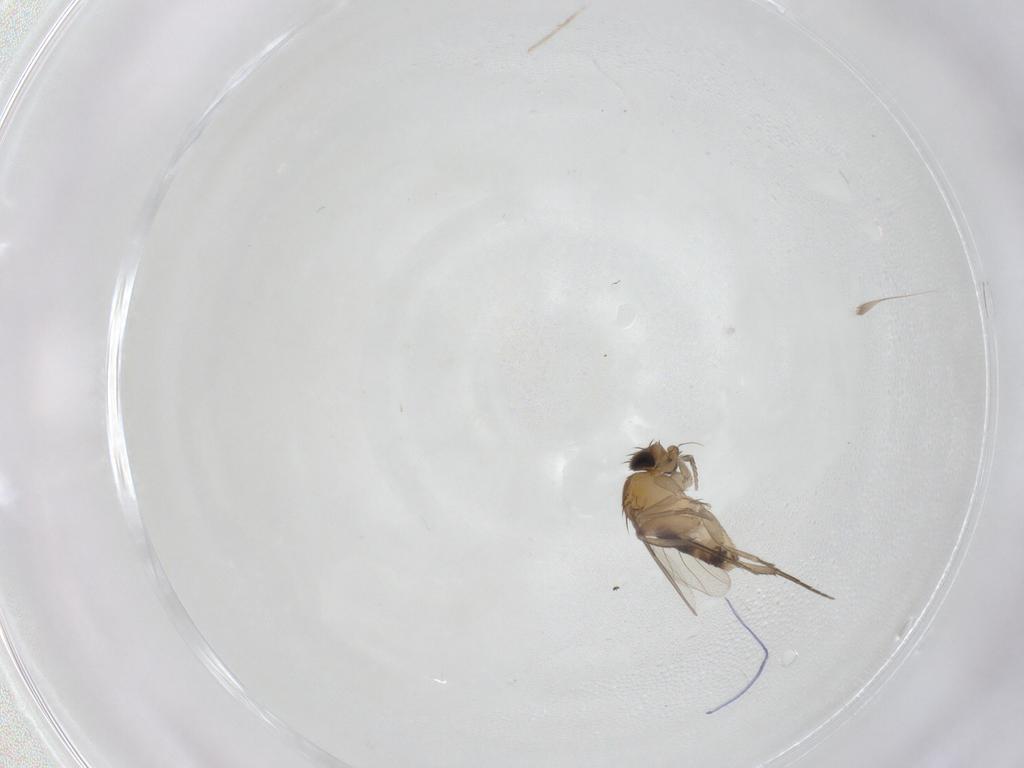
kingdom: Animalia
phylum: Arthropoda
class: Insecta
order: Diptera
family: Phoridae
